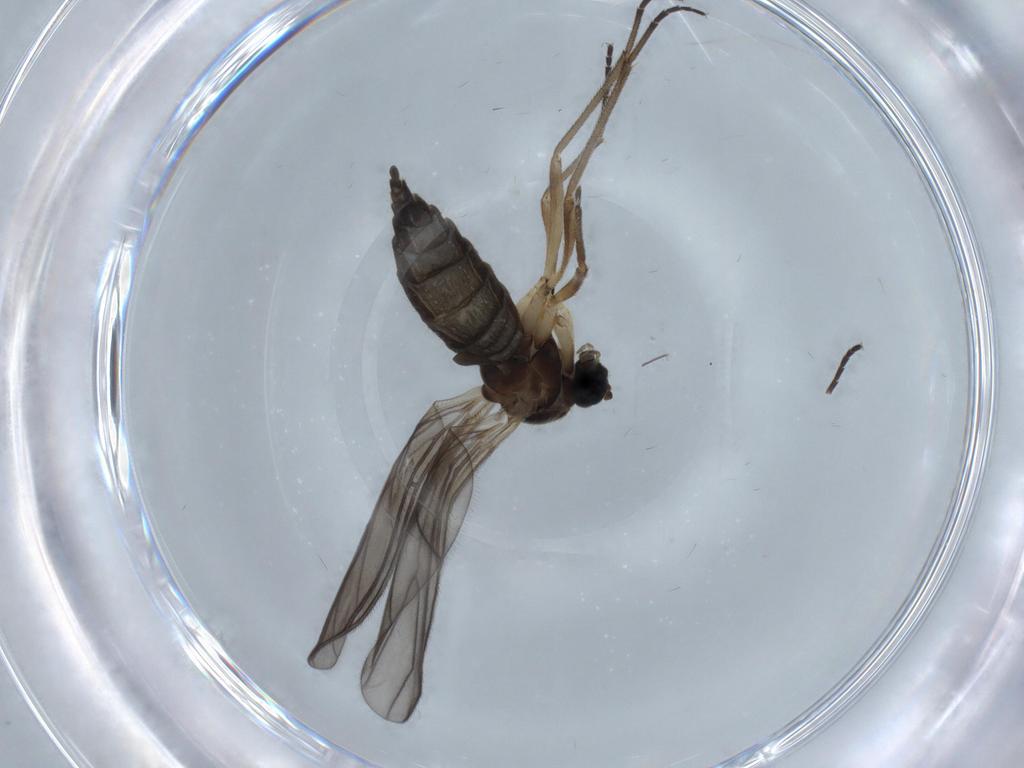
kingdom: Animalia
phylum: Arthropoda
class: Insecta
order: Diptera
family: Sciaridae
